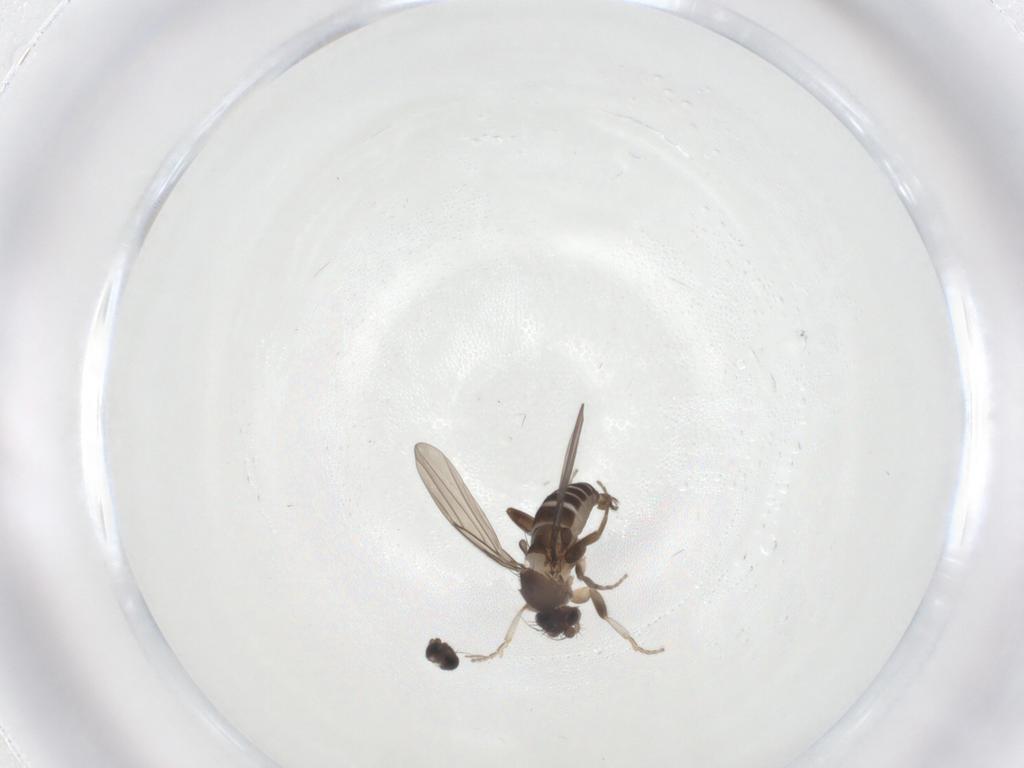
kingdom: Animalia
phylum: Arthropoda
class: Insecta
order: Diptera
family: Phoridae
